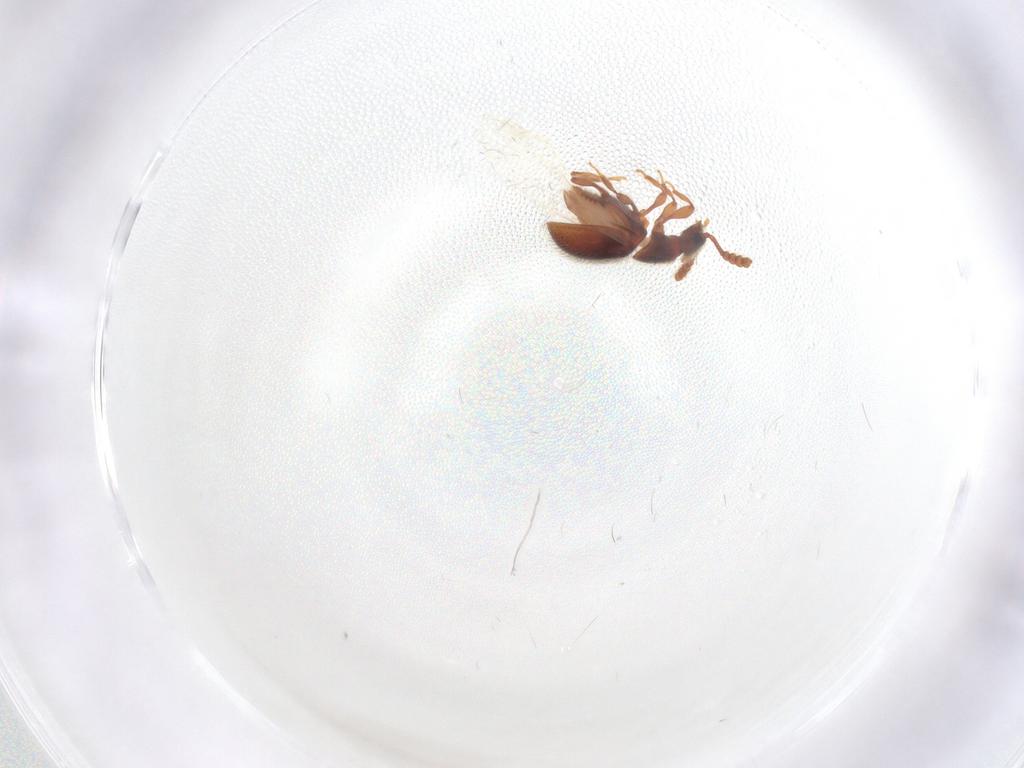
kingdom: Animalia
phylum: Arthropoda
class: Insecta
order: Coleoptera
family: Staphylinidae
